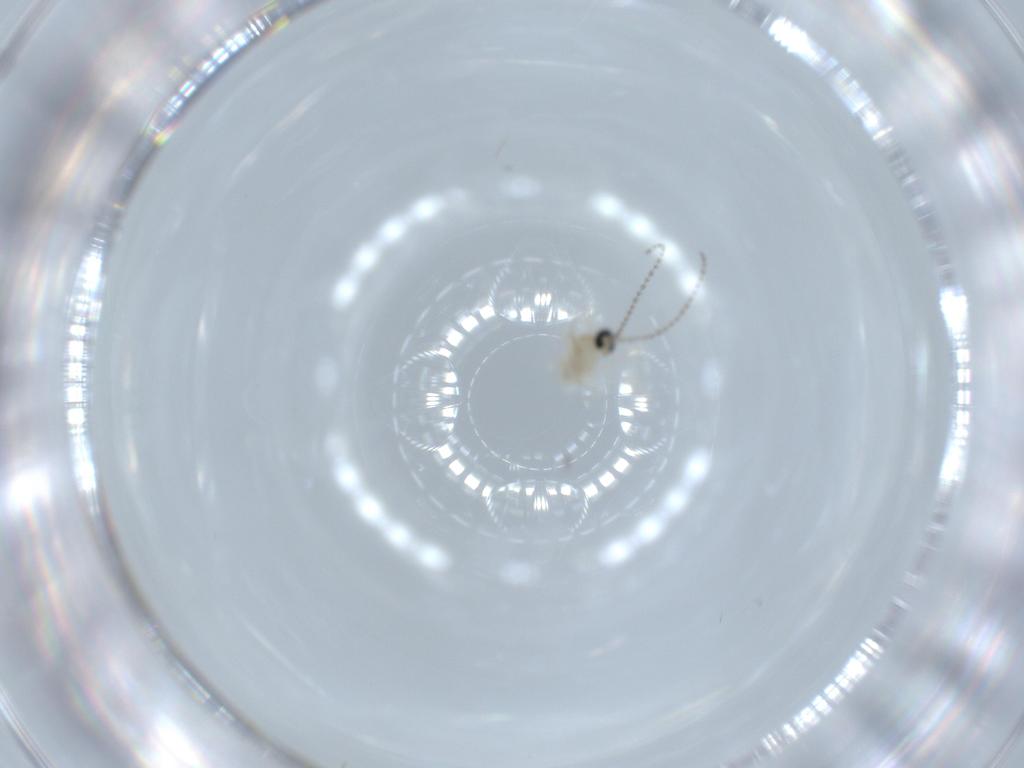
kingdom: Animalia
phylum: Arthropoda
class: Insecta
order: Diptera
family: Cecidomyiidae
